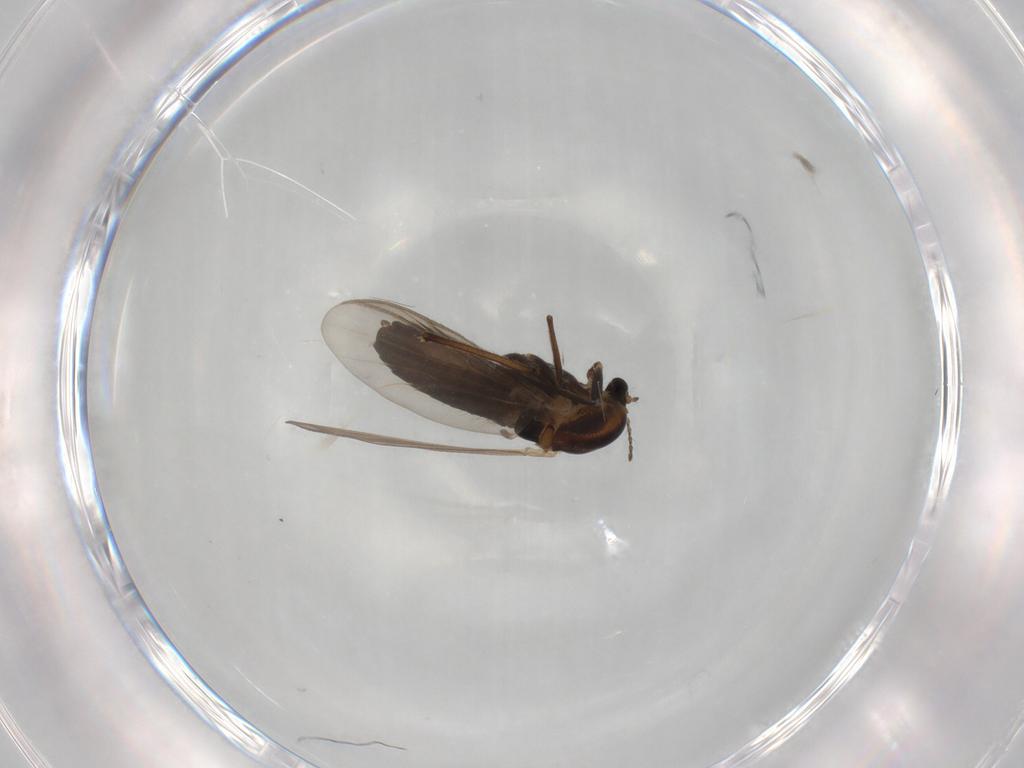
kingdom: Animalia
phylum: Arthropoda
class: Insecta
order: Diptera
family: Chironomidae
